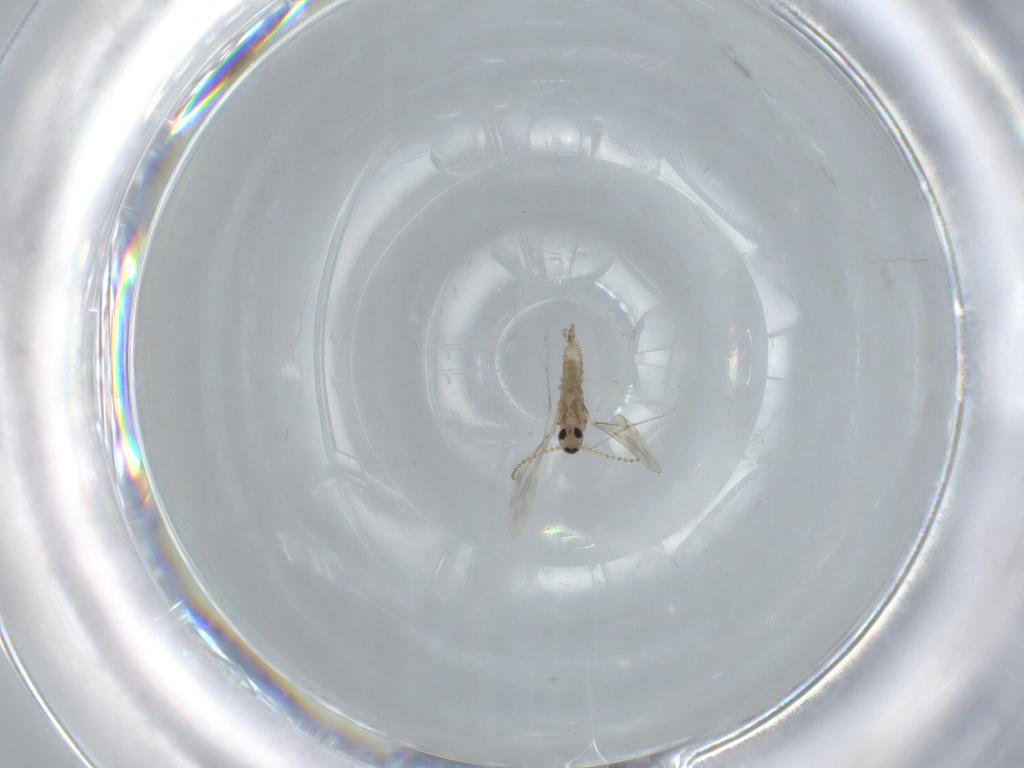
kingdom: Animalia
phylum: Arthropoda
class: Insecta
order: Diptera
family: Cecidomyiidae
